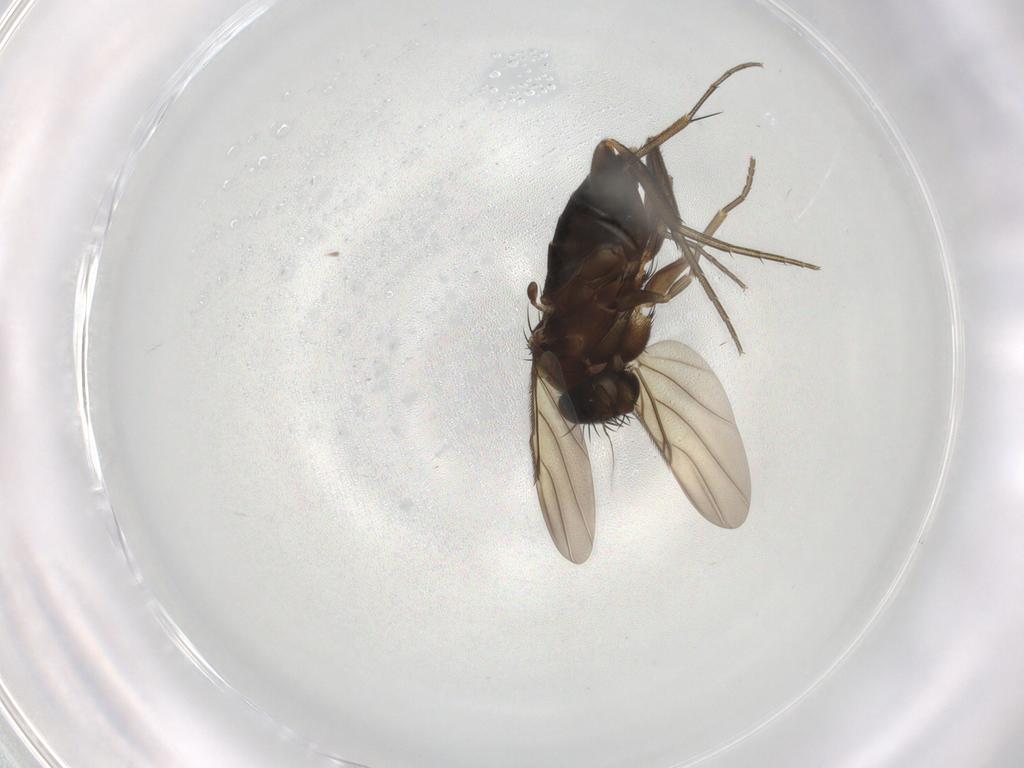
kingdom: Animalia
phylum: Arthropoda
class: Insecta
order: Diptera
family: Phoridae
